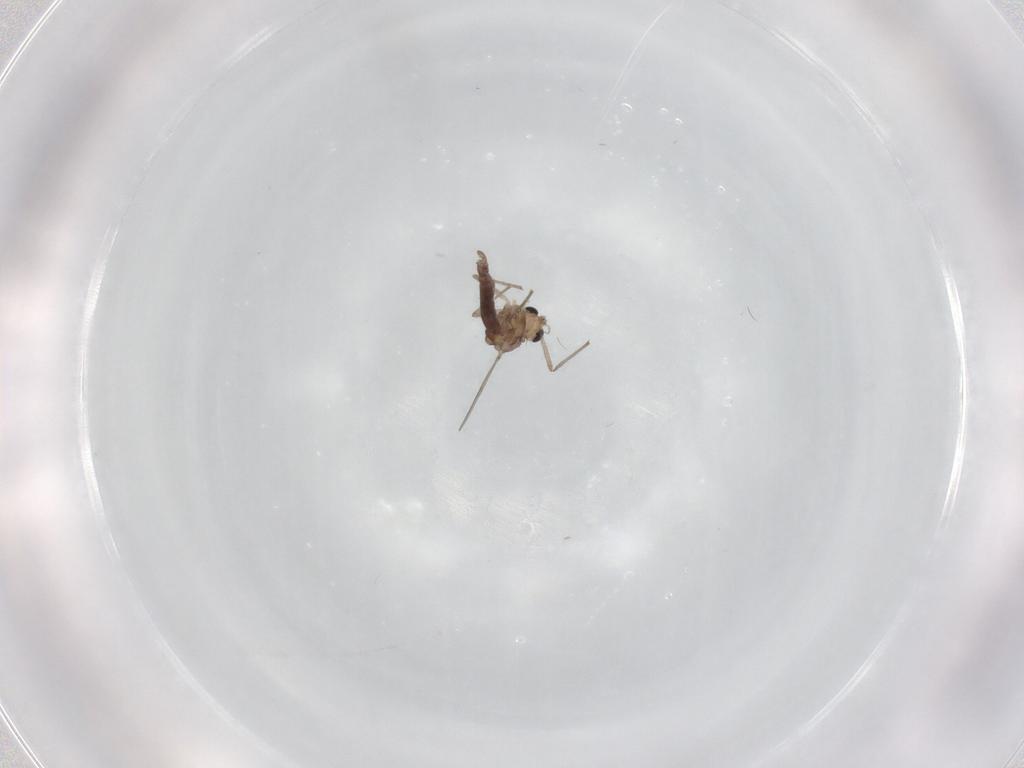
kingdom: Animalia
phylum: Arthropoda
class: Insecta
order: Diptera
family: Chironomidae
